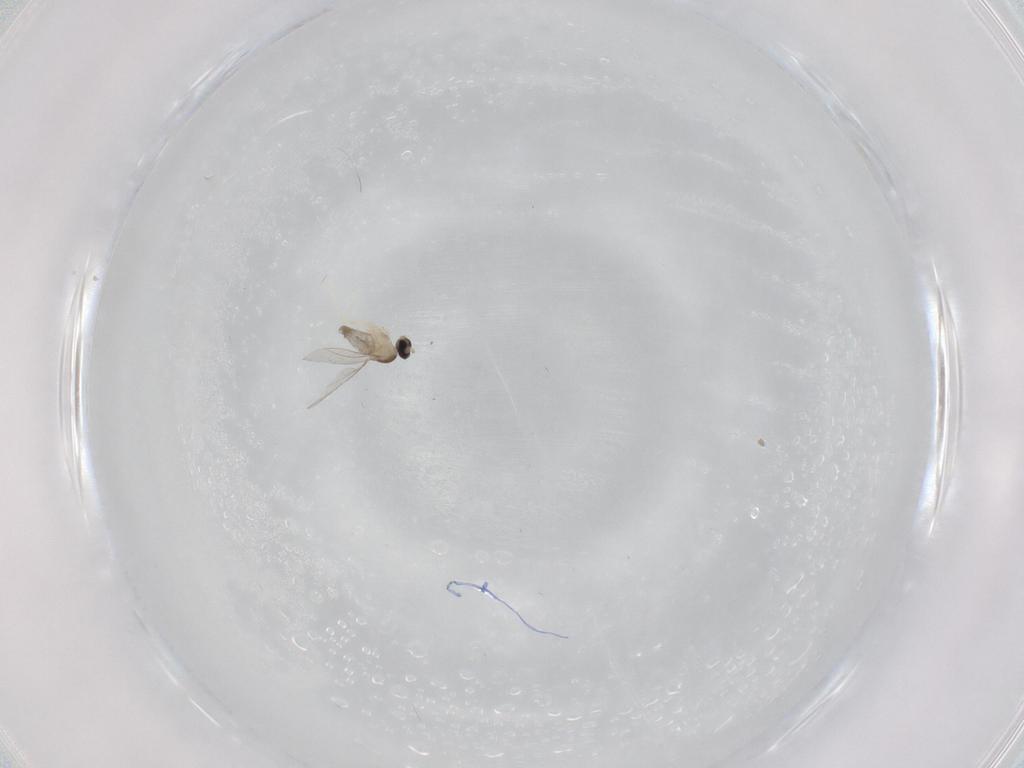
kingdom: Animalia
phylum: Arthropoda
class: Insecta
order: Diptera
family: Sphaeroceridae
